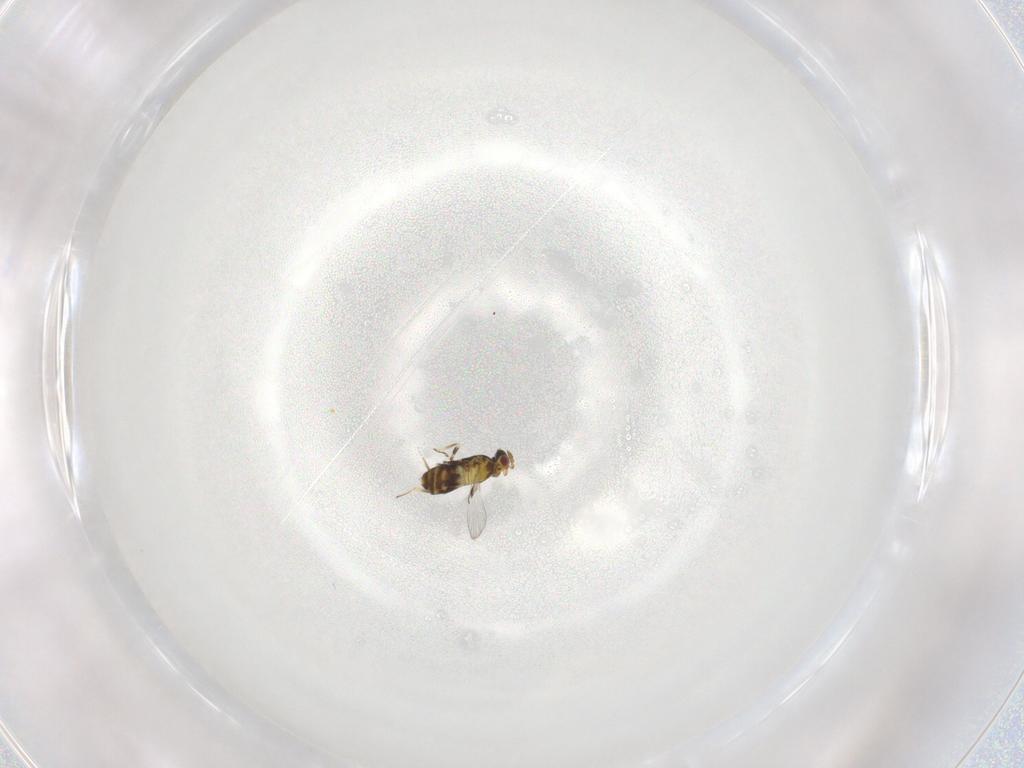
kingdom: Animalia
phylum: Arthropoda
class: Insecta
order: Hymenoptera
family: Trichogrammatidae
